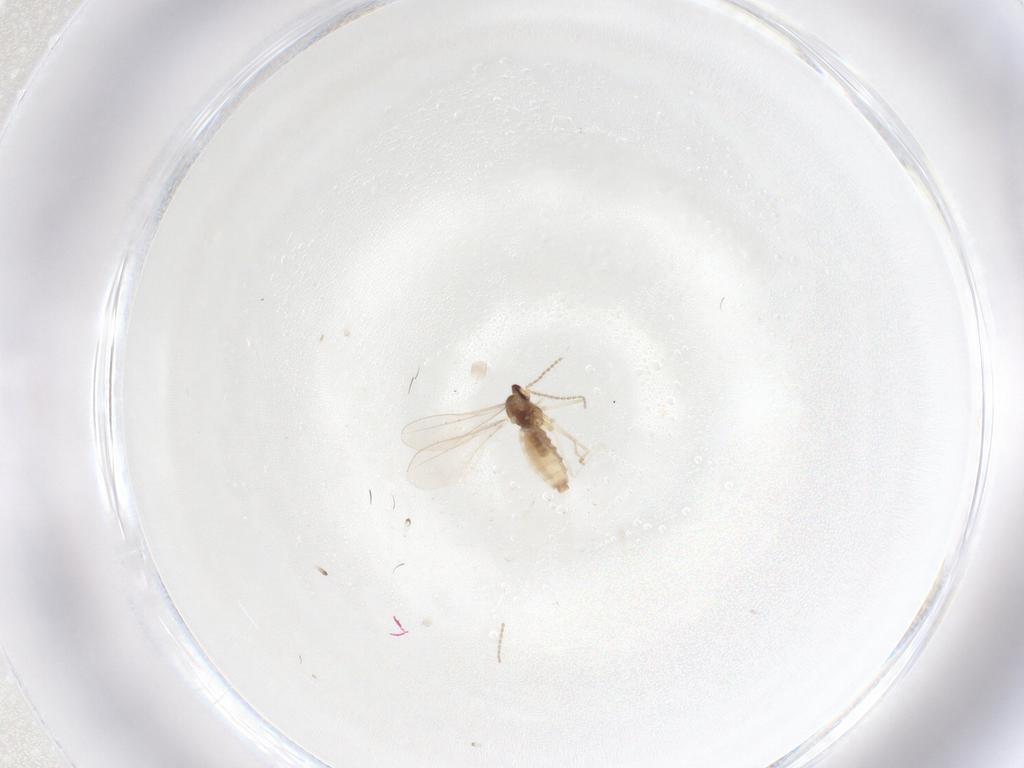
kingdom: Animalia
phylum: Arthropoda
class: Insecta
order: Diptera
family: Cecidomyiidae
